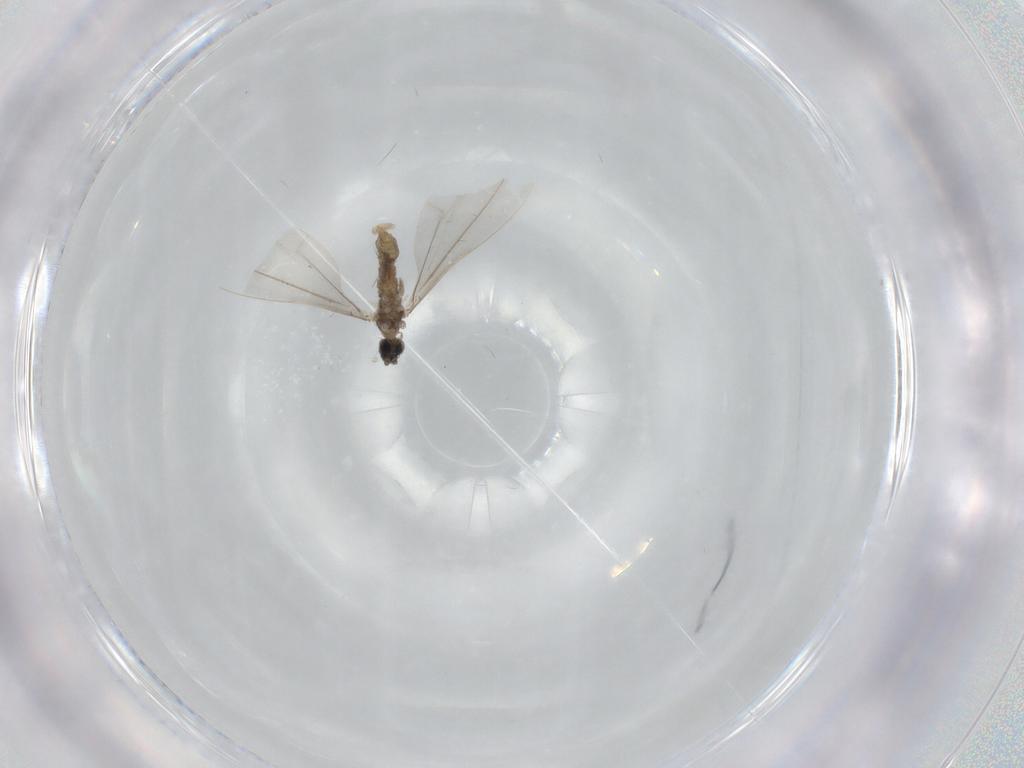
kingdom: Animalia
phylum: Arthropoda
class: Insecta
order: Diptera
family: Cecidomyiidae
